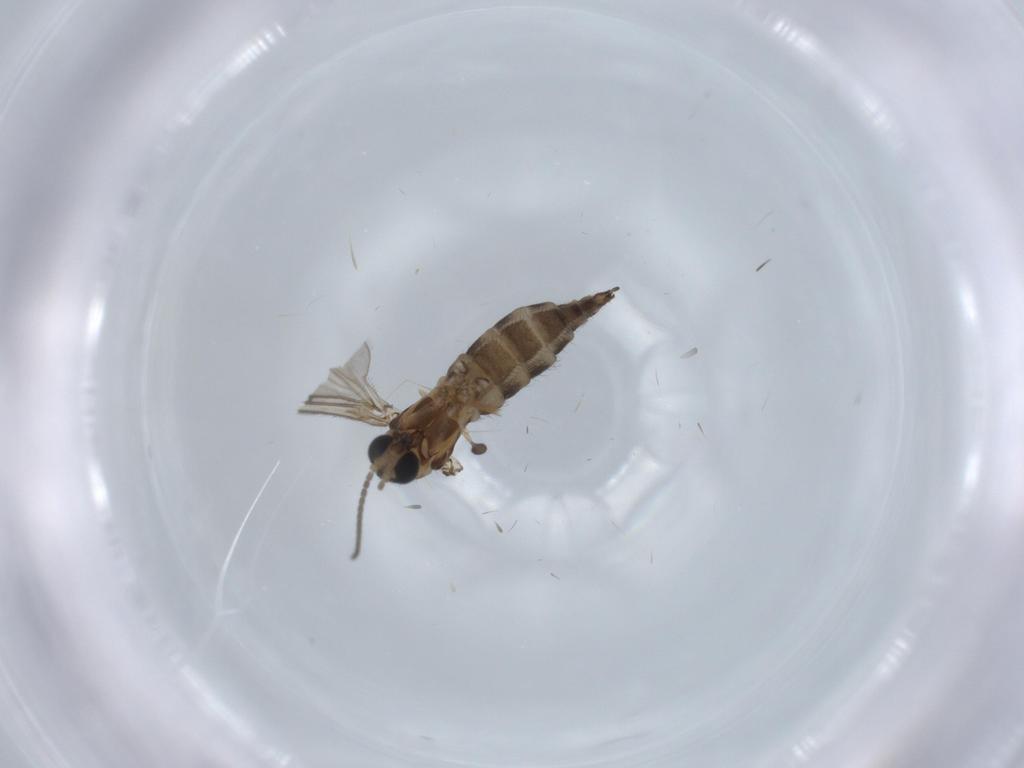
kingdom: Animalia
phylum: Arthropoda
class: Insecta
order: Diptera
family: Sciaridae
